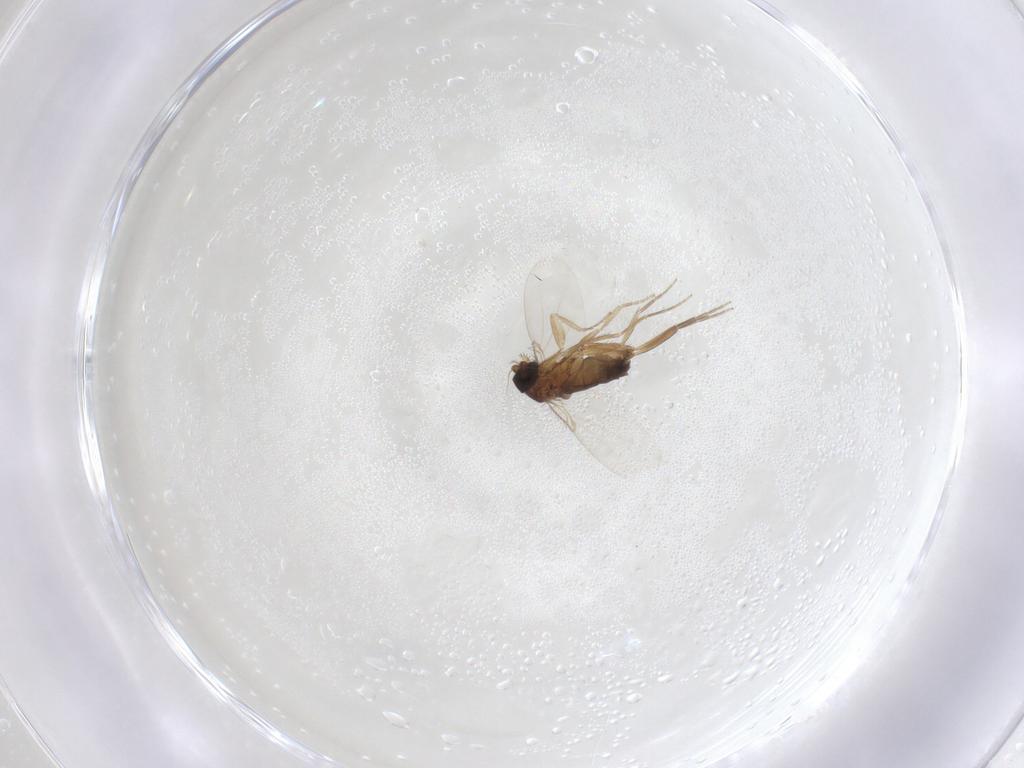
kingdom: Animalia
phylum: Arthropoda
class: Insecta
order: Diptera
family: Phoridae
